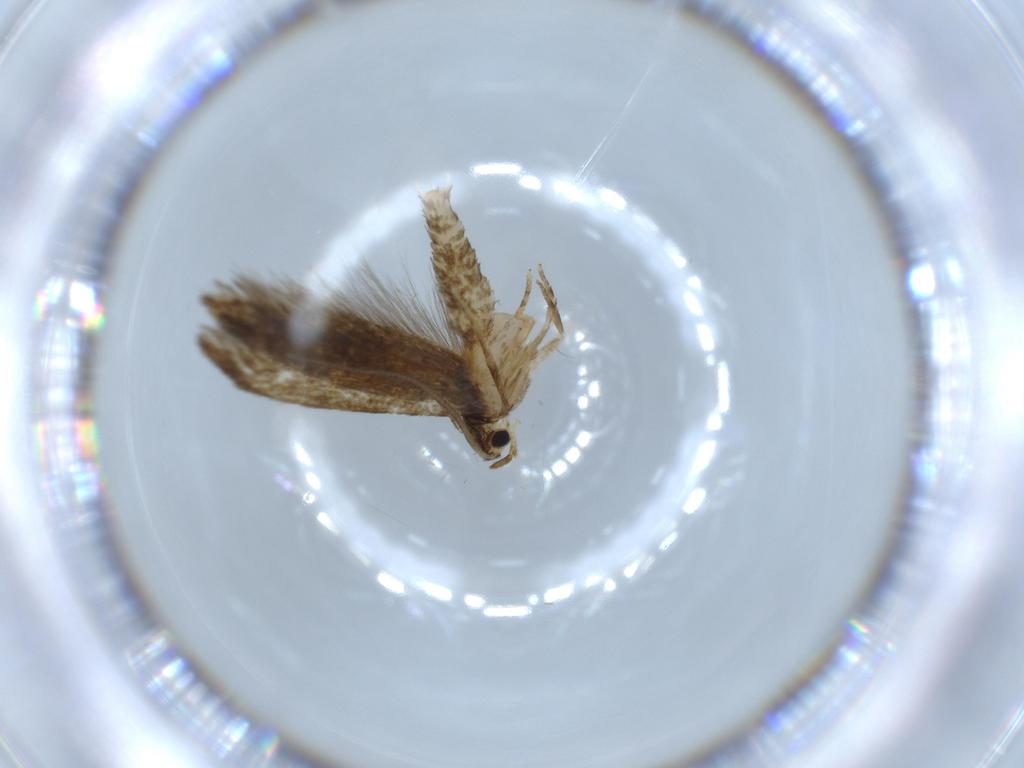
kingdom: Animalia
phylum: Arthropoda
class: Insecta
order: Lepidoptera
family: Tineidae
